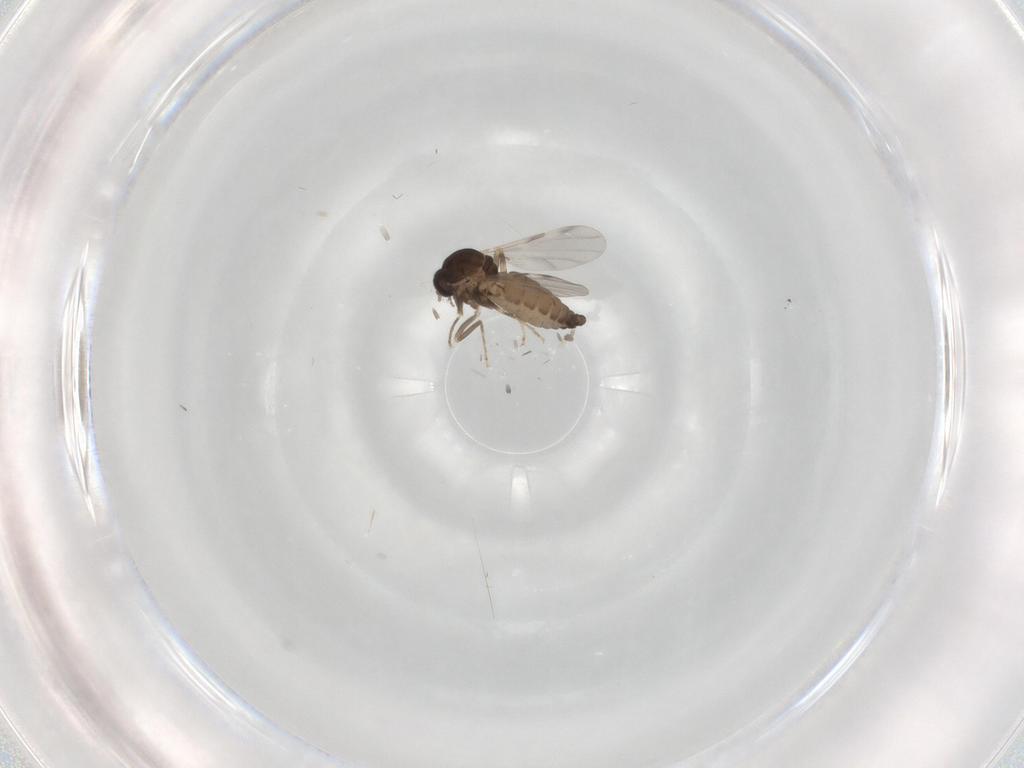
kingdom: Animalia
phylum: Arthropoda
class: Insecta
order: Diptera
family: Ceratopogonidae
